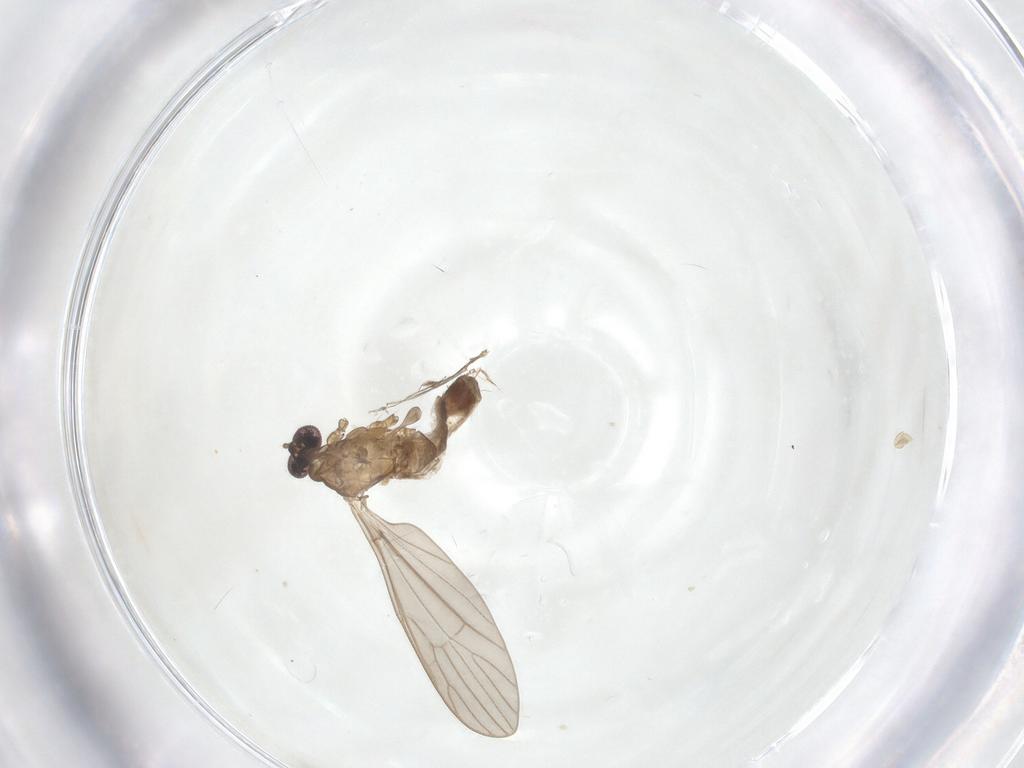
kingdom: Animalia
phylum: Arthropoda
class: Insecta
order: Diptera
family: Limoniidae
